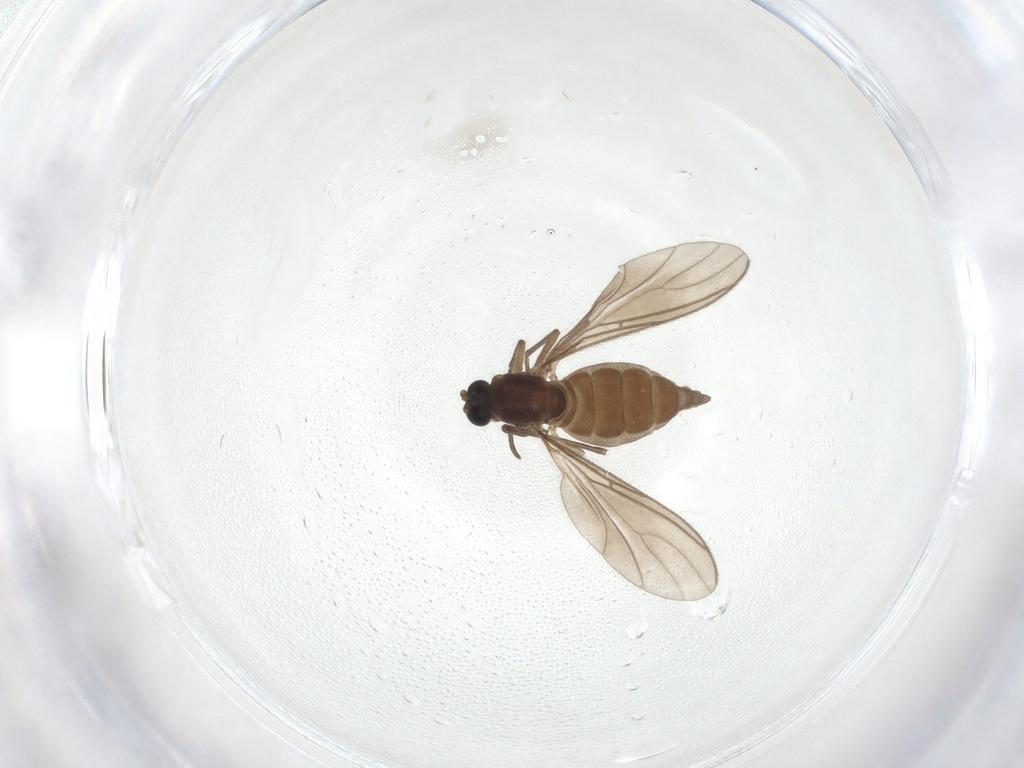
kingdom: Animalia
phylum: Arthropoda
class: Insecta
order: Diptera
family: Sciaridae
